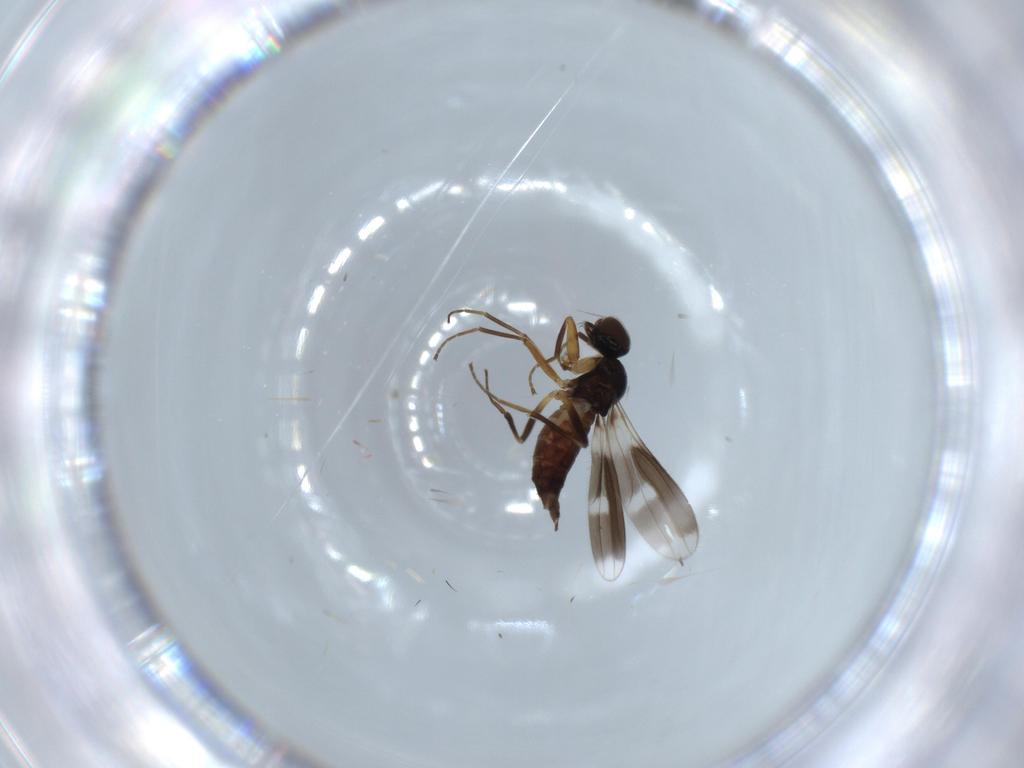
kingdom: Animalia
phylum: Arthropoda
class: Insecta
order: Diptera
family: Hybotidae
